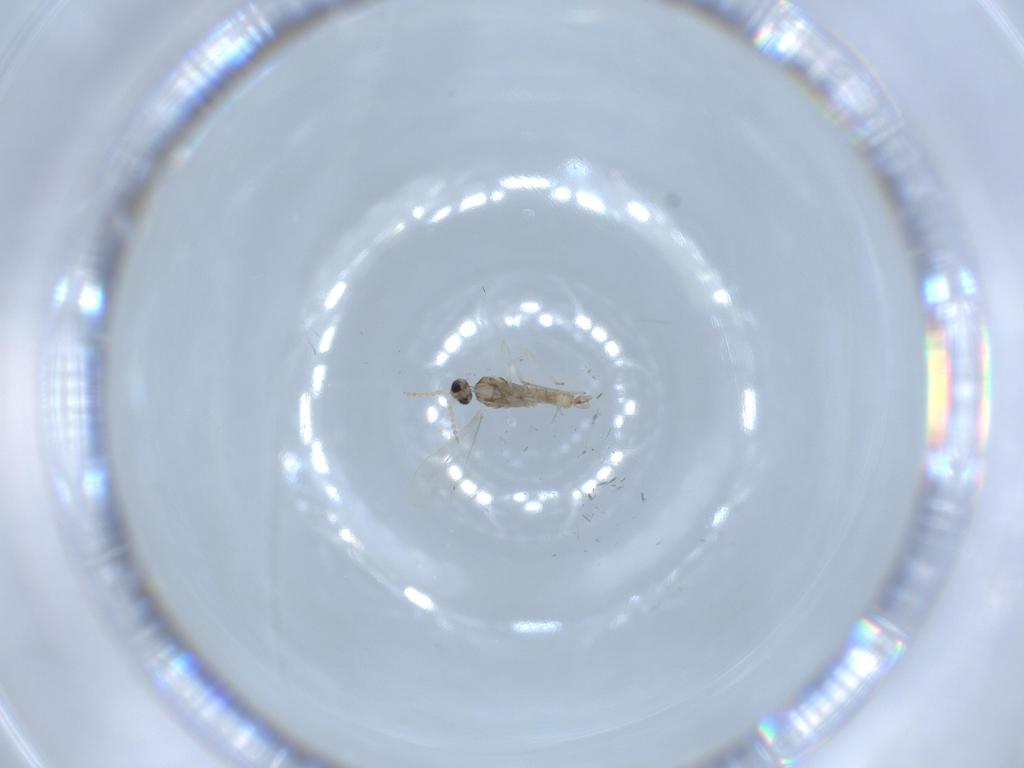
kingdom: Animalia
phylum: Arthropoda
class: Insecta
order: Diptera
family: Cecidomyiidae
